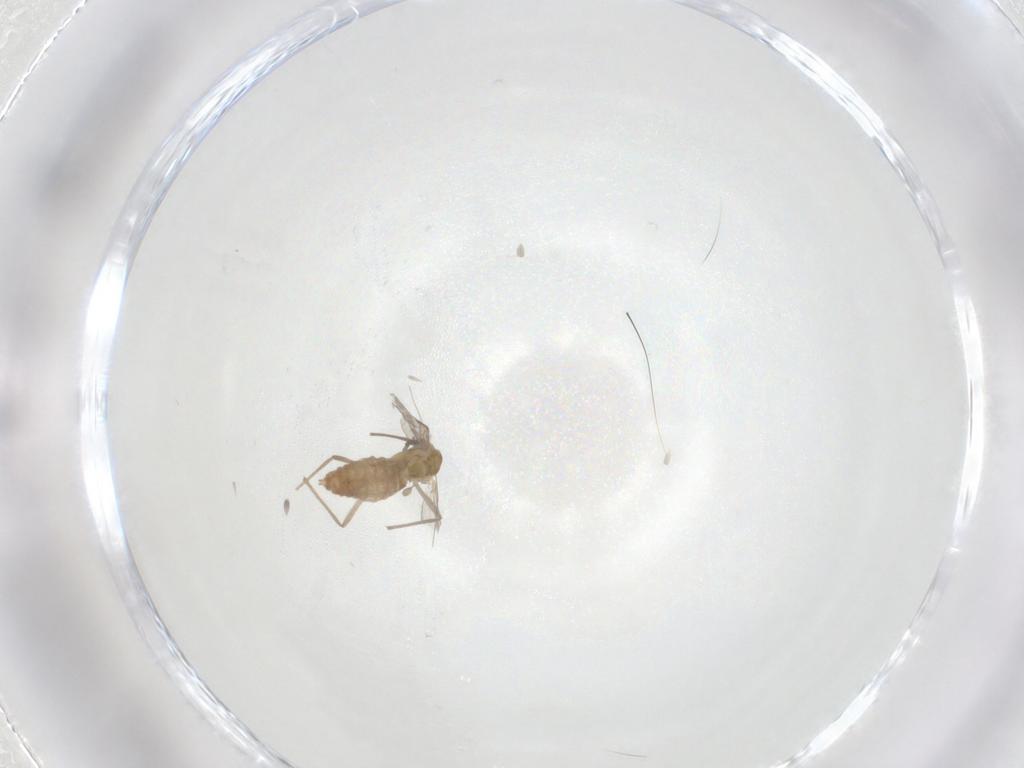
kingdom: Animalia
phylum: Arthropoda
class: Insecta
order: Diptera
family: Chironomidae
